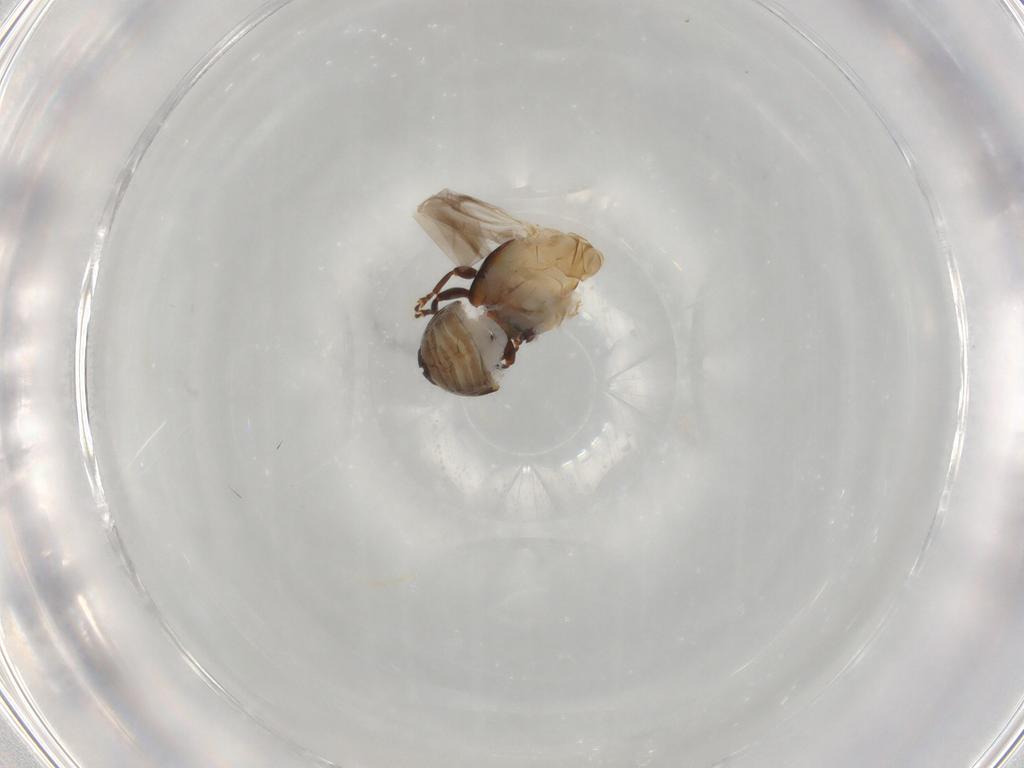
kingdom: Animalia
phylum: Arthropoda
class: Insecta
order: Coleoptera
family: Anthribidae
